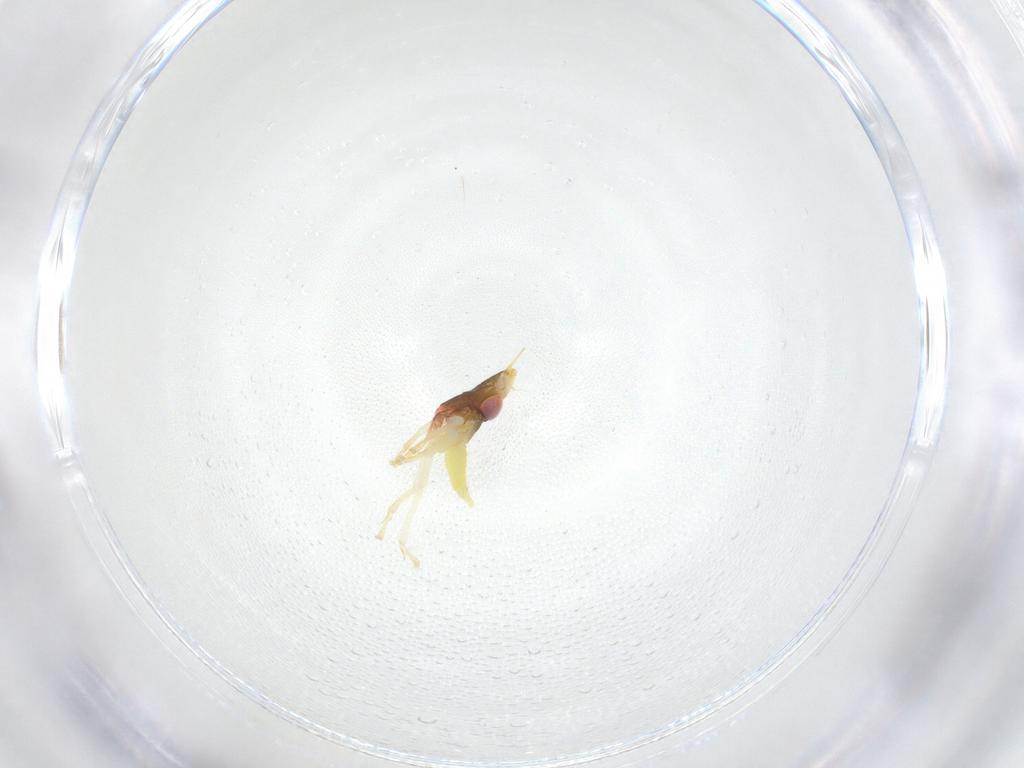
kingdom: Animalia
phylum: Arthropoda
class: Insecta
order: Hemiptera
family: Cicadellidae
